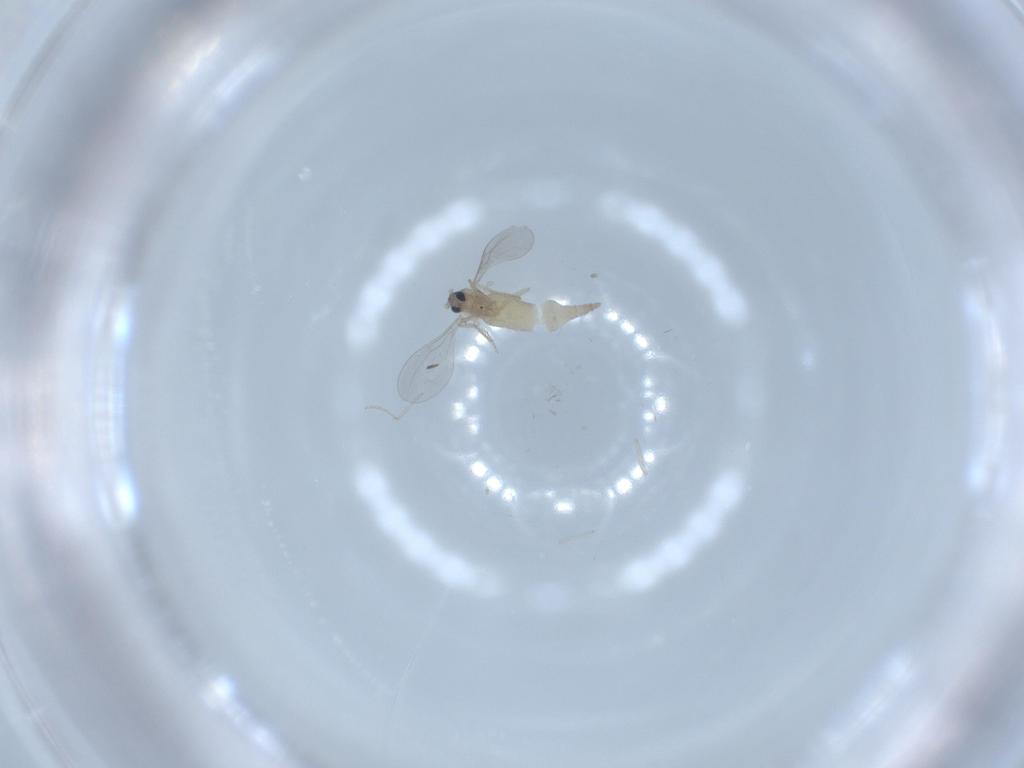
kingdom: Animalia
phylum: Arthropoda
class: Insecta
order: Diptera
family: Cecidomyiidae
